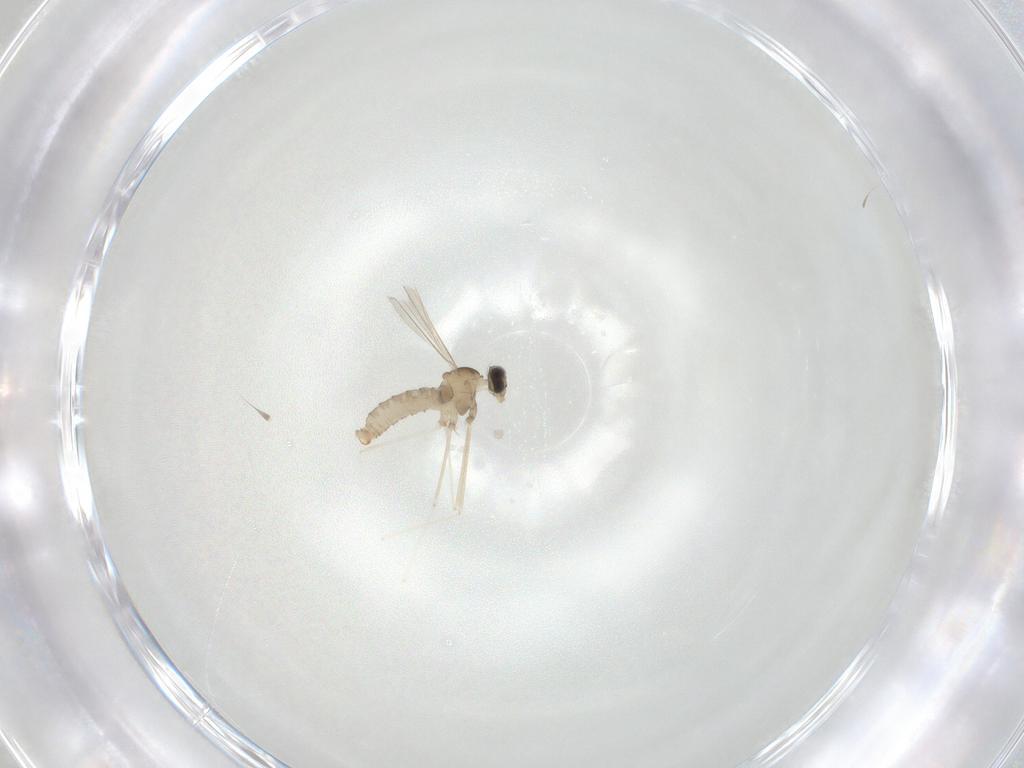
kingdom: Animalia
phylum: Arthropoda
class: Insecta
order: Diptera
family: Cecidomyiidae
